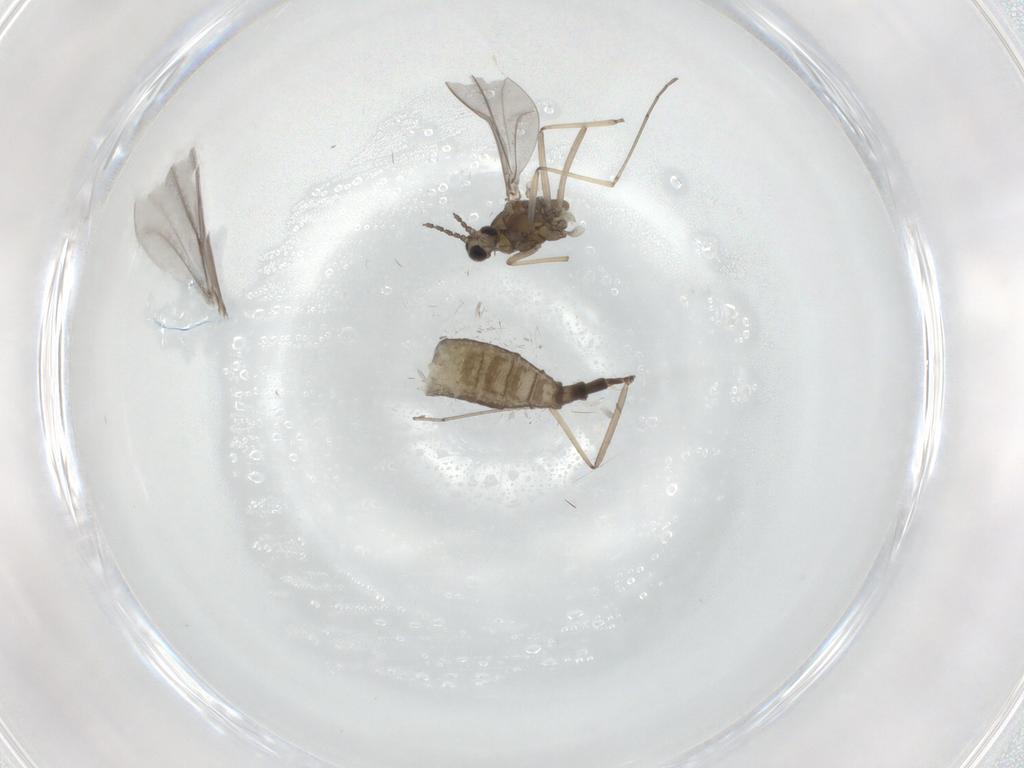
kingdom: Animalia
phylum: Arthropoda
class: Insecta
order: Diptera
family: Cecidomyiidae
